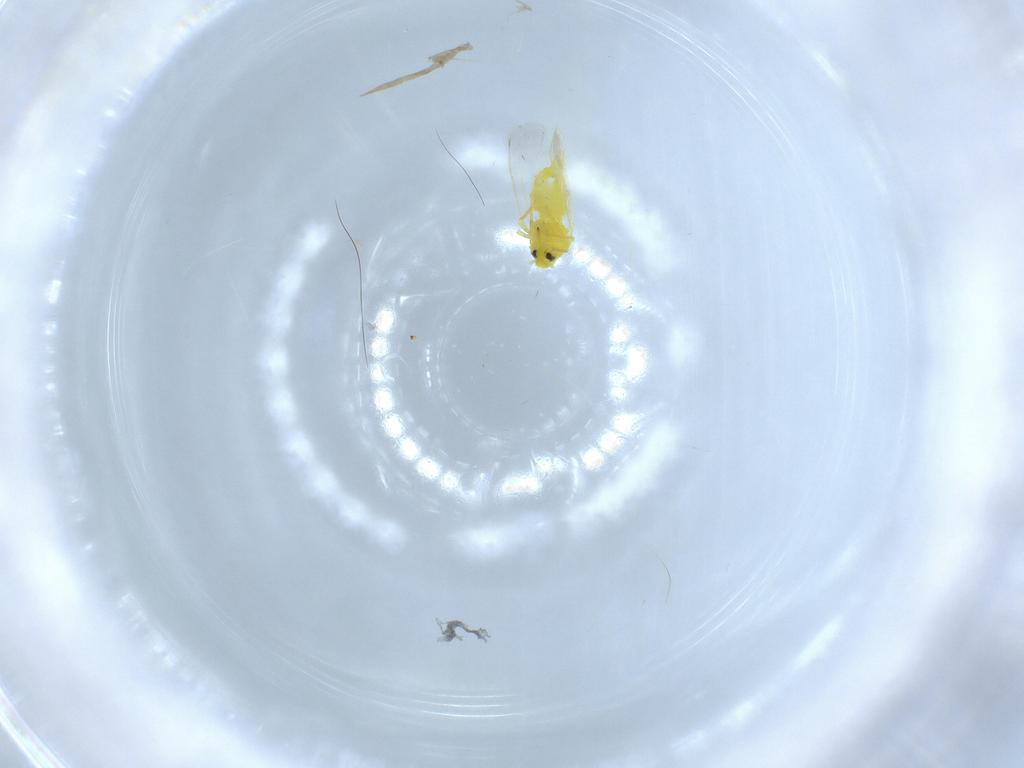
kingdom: Animalia
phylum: Arthropoda
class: Insecta
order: Hemiptera
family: Aleyrodidae
